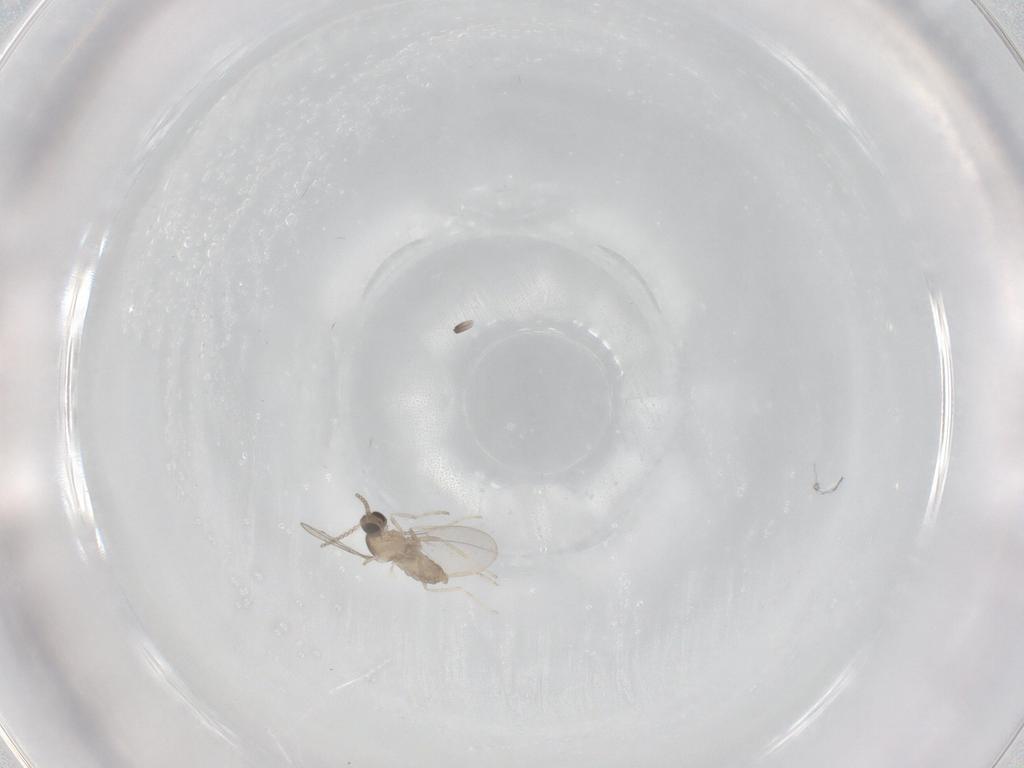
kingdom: Animalia
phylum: Arthropoda
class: Insecta
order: Diptera
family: Cecidomyiidae
